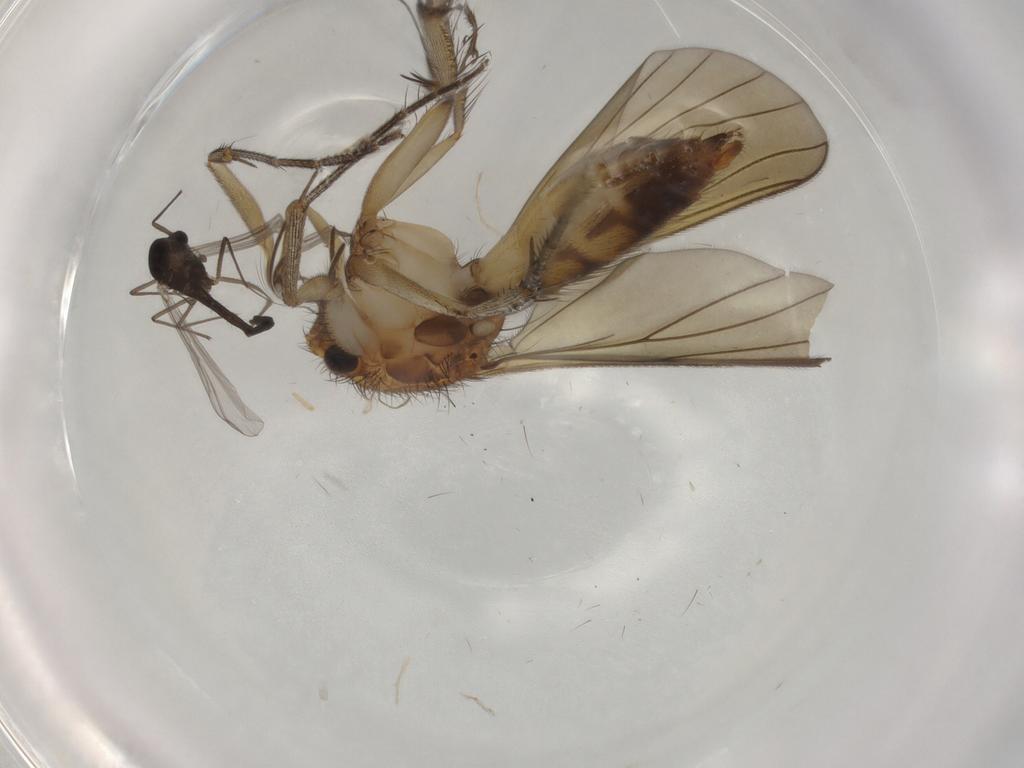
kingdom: Animalia
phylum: Arthropoda
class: Insecta
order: Diptera
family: Mycetophilidae
